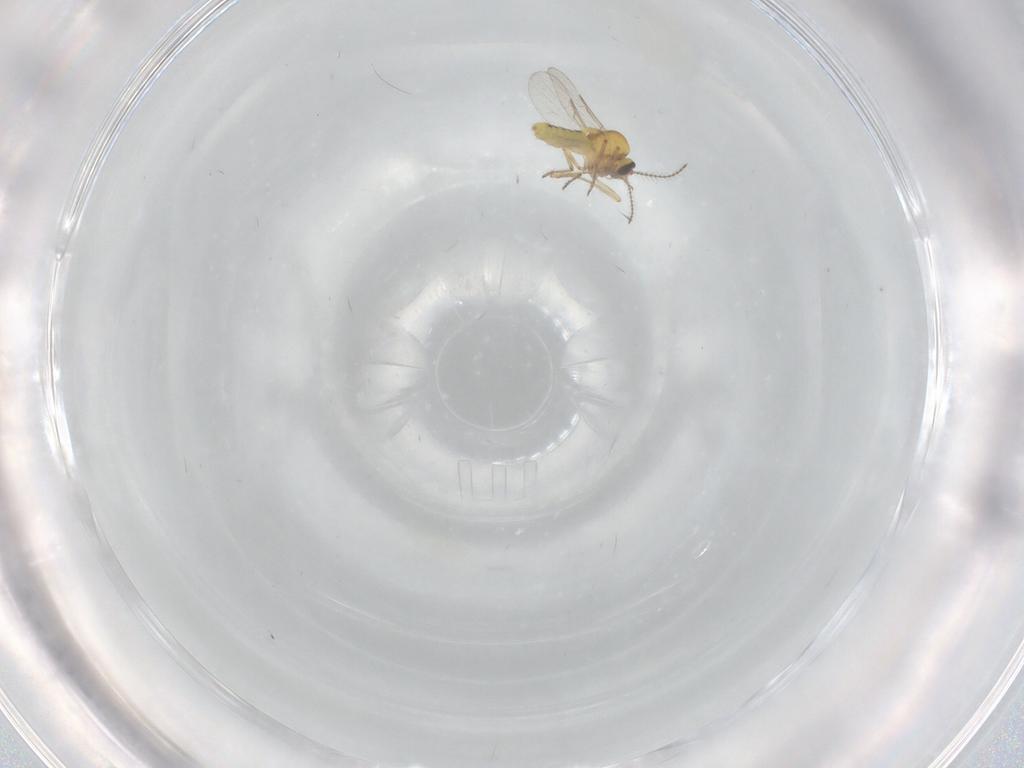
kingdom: Animalia
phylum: Arthropoda
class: Insecta
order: Diptera
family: Ceratopogonidae
